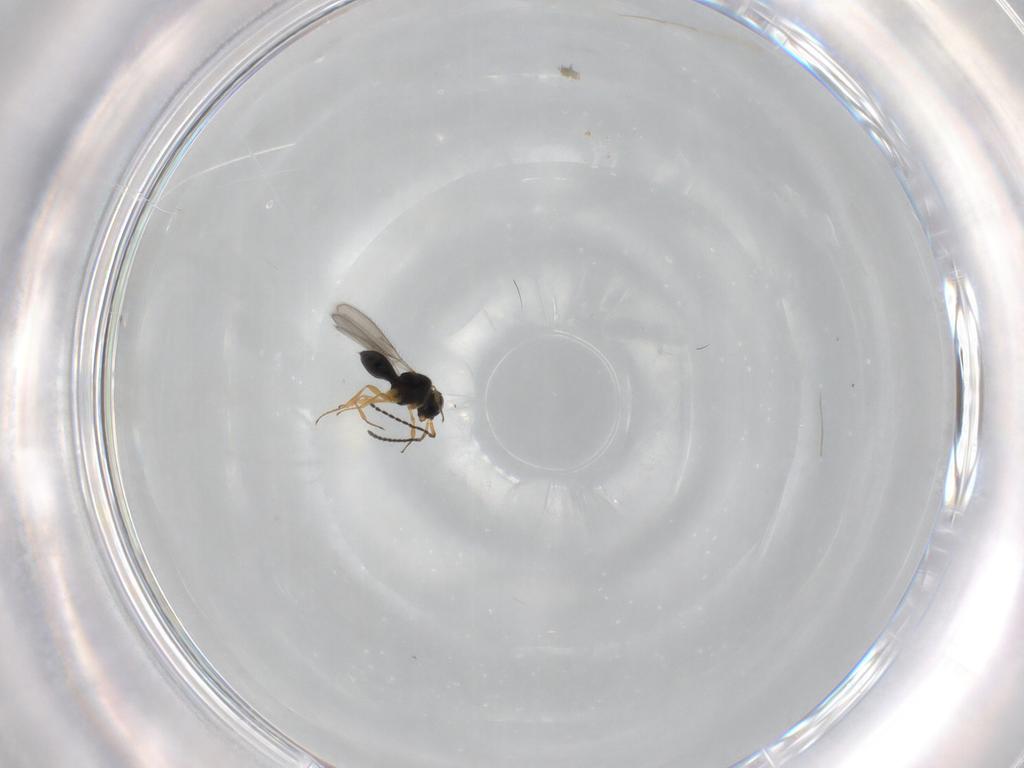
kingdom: Animalia
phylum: Arthropoda
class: Insecta
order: Hymenoptera
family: Scelionidae
